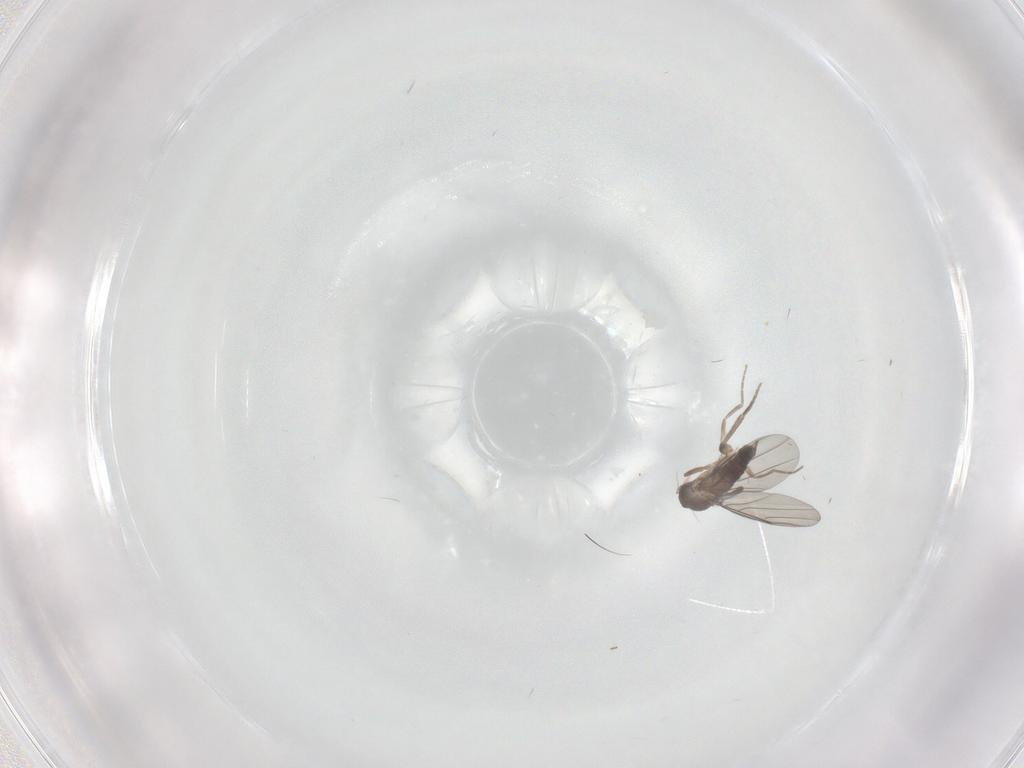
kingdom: Animalia
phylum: Arthropoda
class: Insecta
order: Diptera
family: Phoridae
